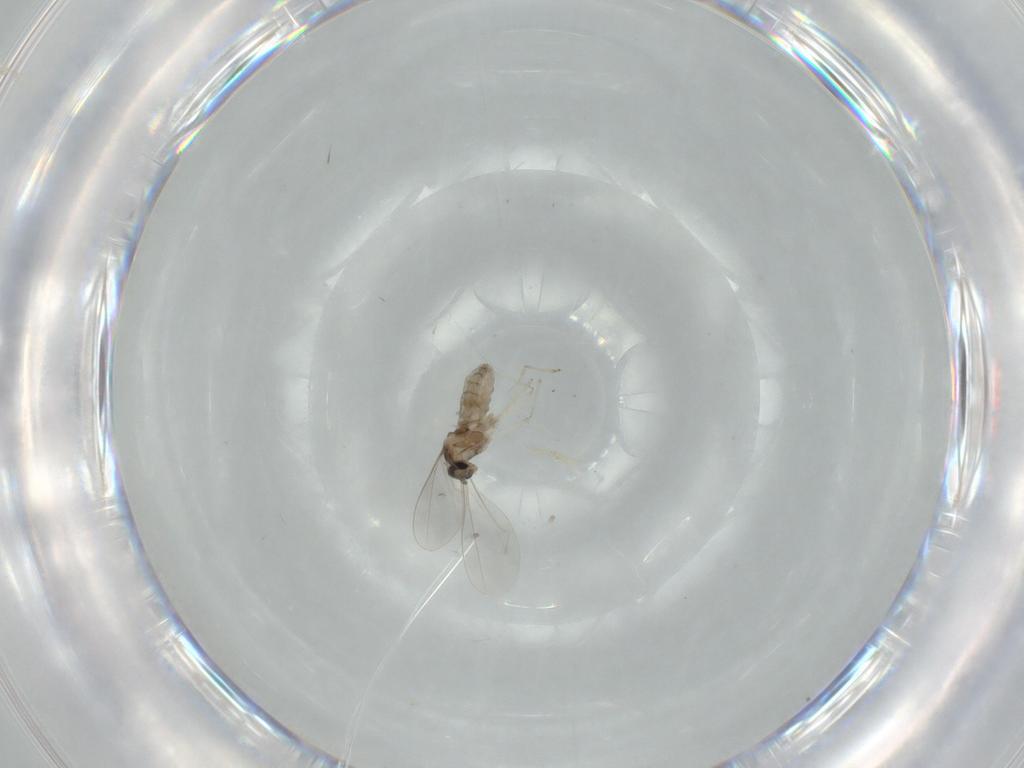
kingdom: Animalia
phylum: Arthropoda
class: Insecta
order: Diptera
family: Cecidomyiidae
